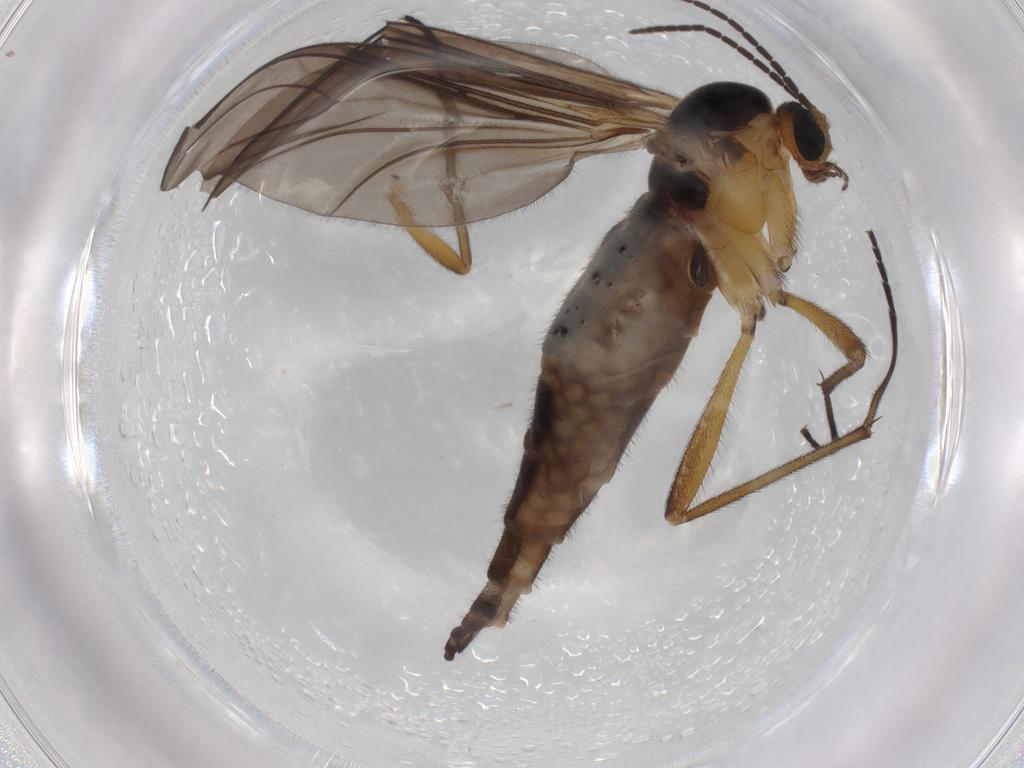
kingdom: Animalia
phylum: Arthropoda
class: Insecta
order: Diptera
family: Sciaridae
